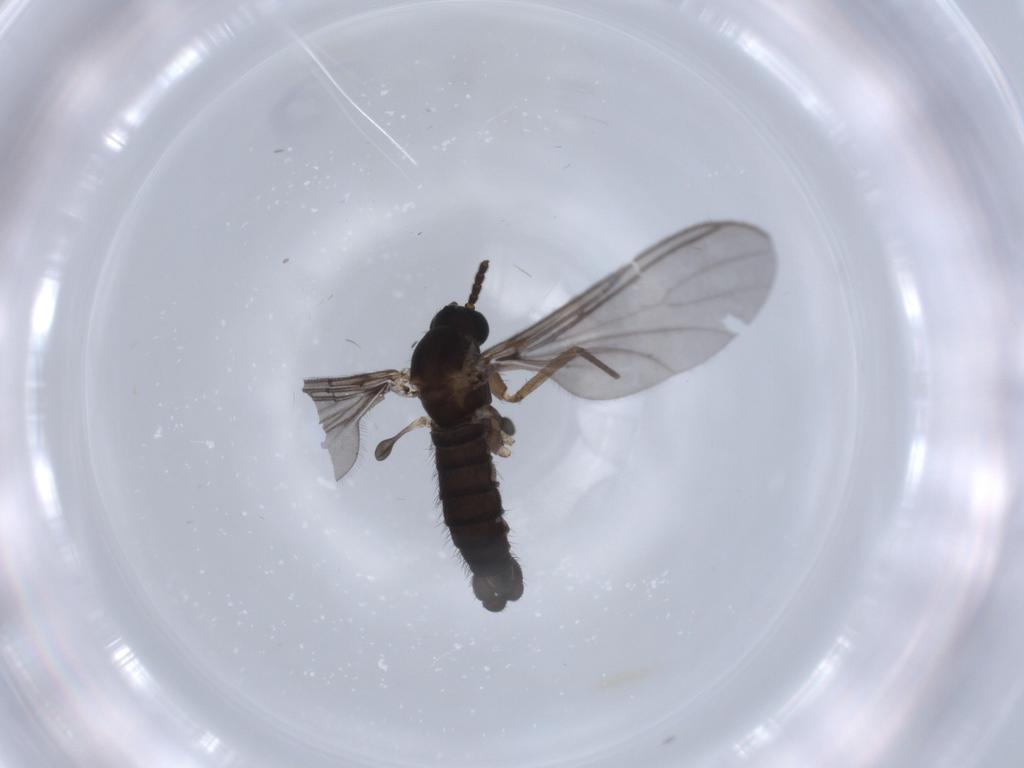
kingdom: Animalia
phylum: Arthropoda
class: Insecta
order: Diptera
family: Sciaridae
